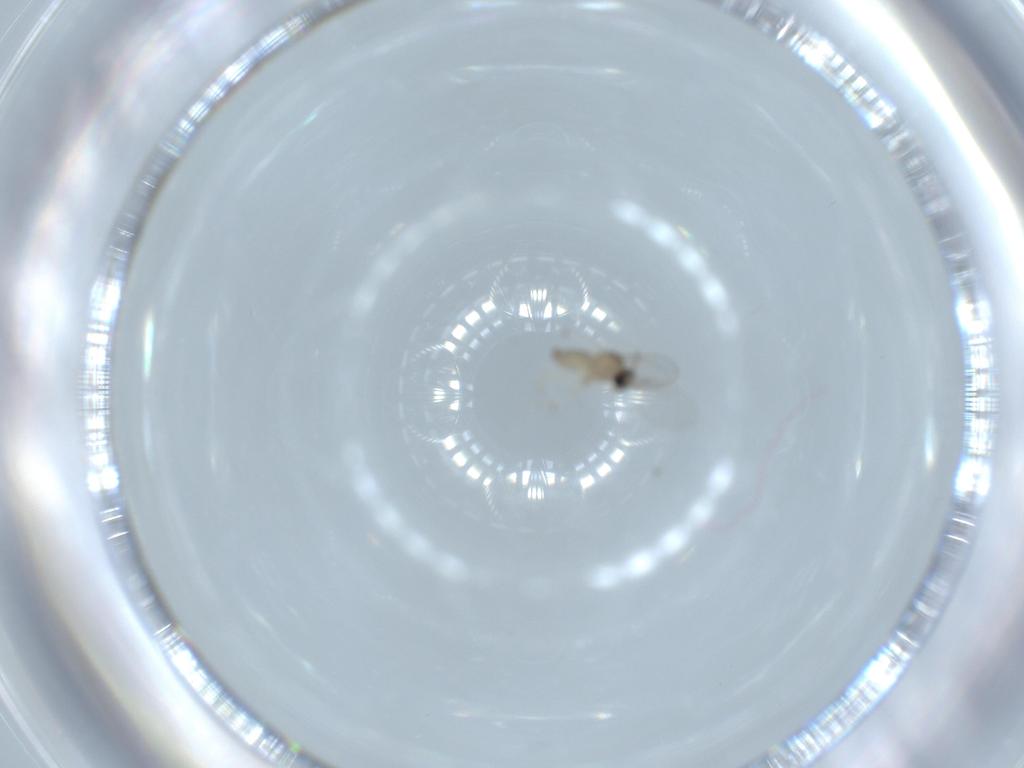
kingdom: Animalia
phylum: Arthropoda
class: Insecta
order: Diptera
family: Cecidomyiidae
